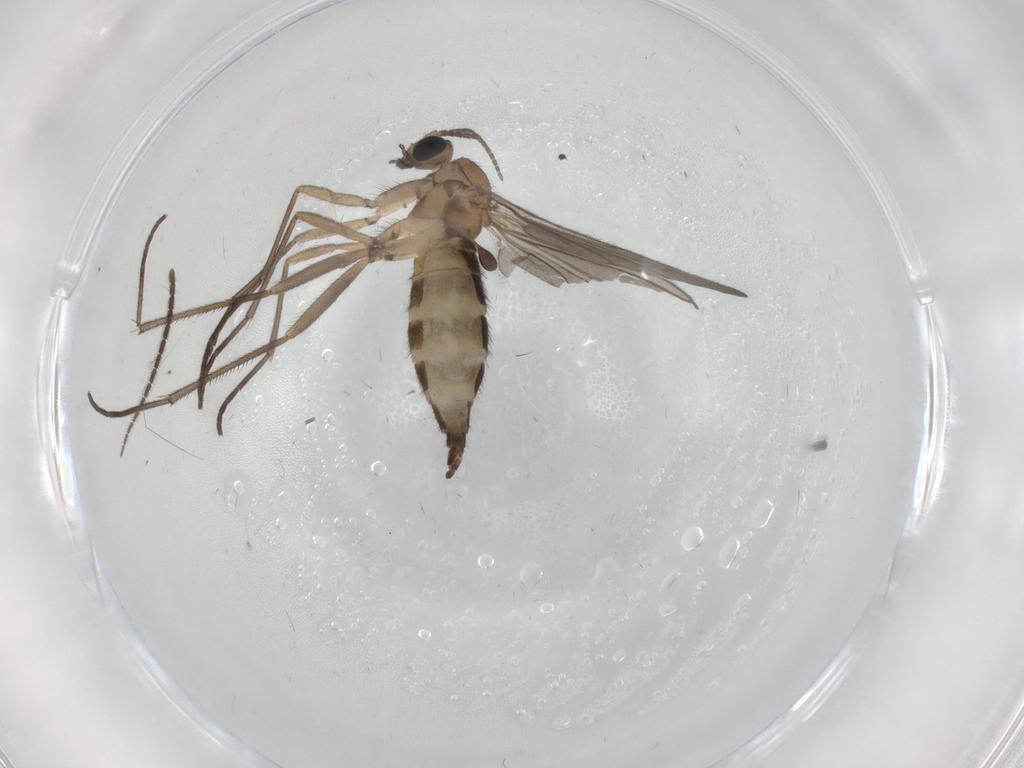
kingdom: Animalia
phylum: Arthropoda
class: Insecta
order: Diptera
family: Sciaridae
